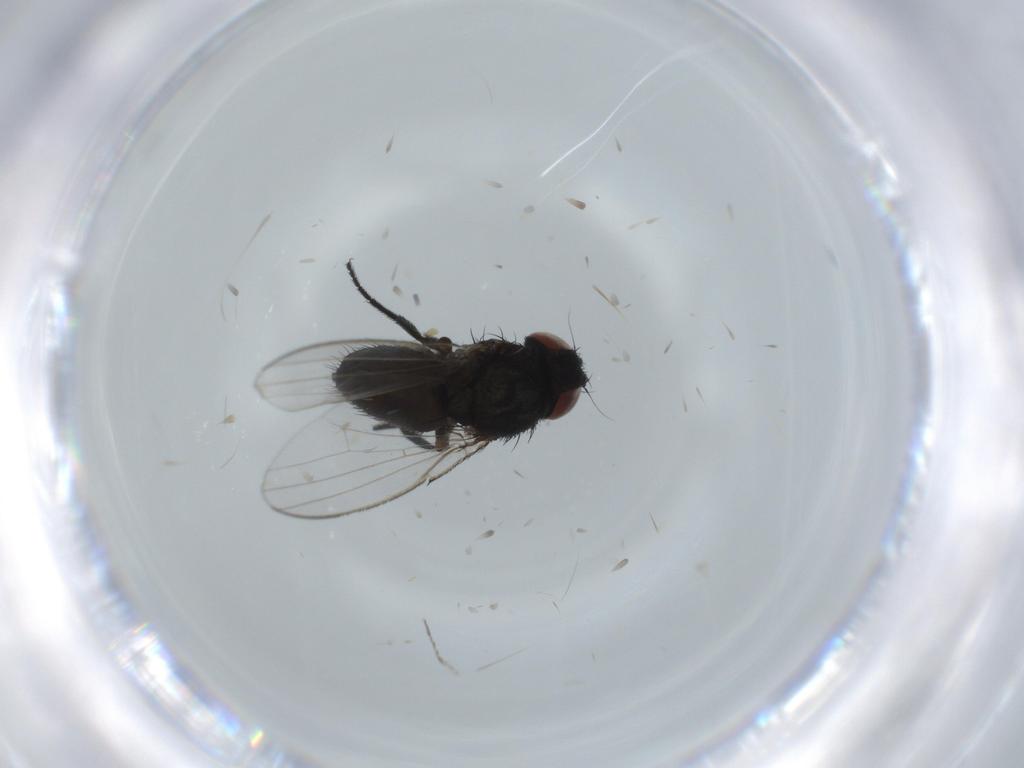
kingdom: Animalia
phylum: Arthropoda
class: Insecta
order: Diptera
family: Milichiidae
